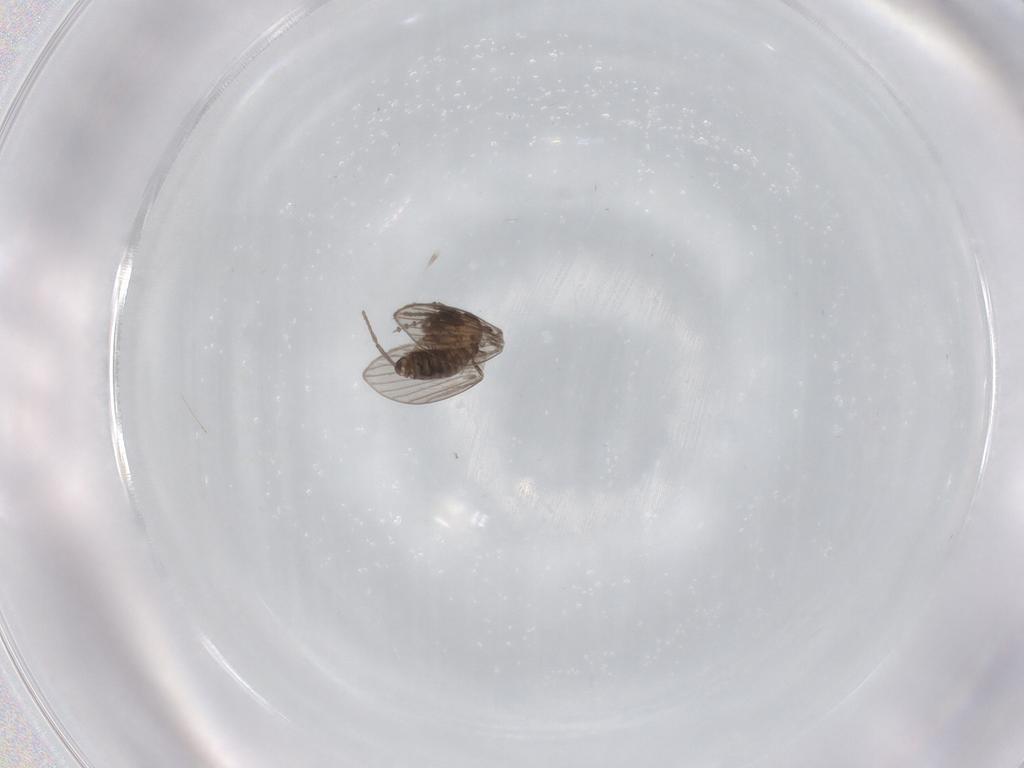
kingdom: Animalia
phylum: Arthropoda
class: Insecta
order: Diptera
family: Psychodidae
